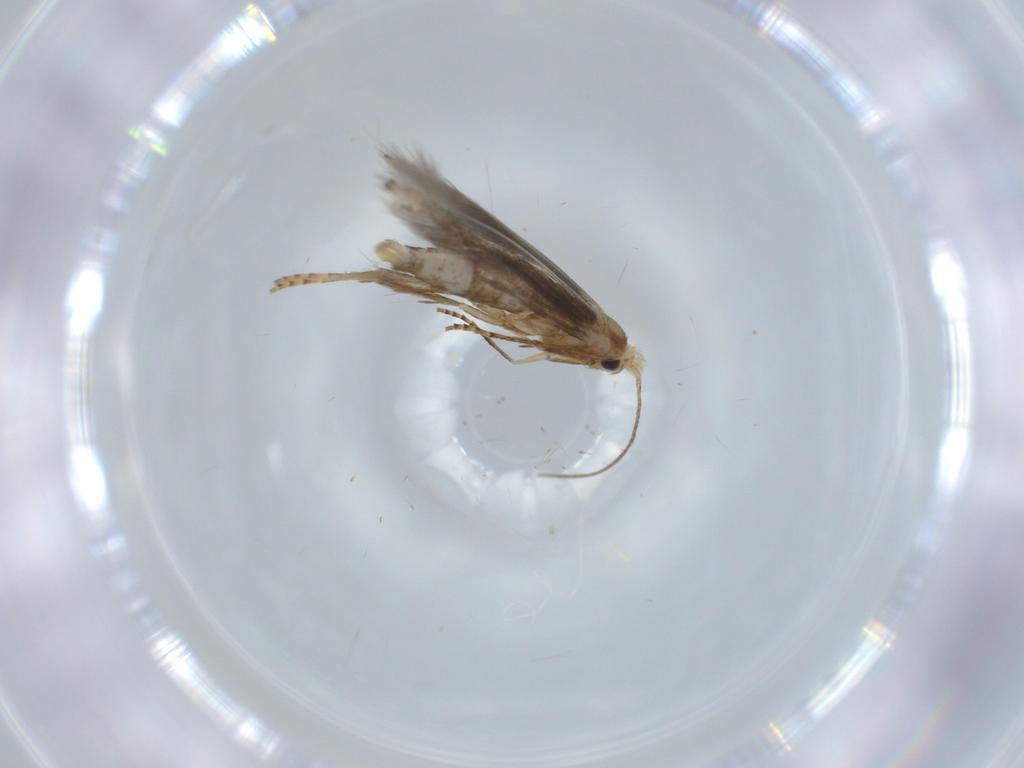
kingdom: Animalia
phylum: Arthropoda
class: Insecta
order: Lepidoptera
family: Bucculatricidae
